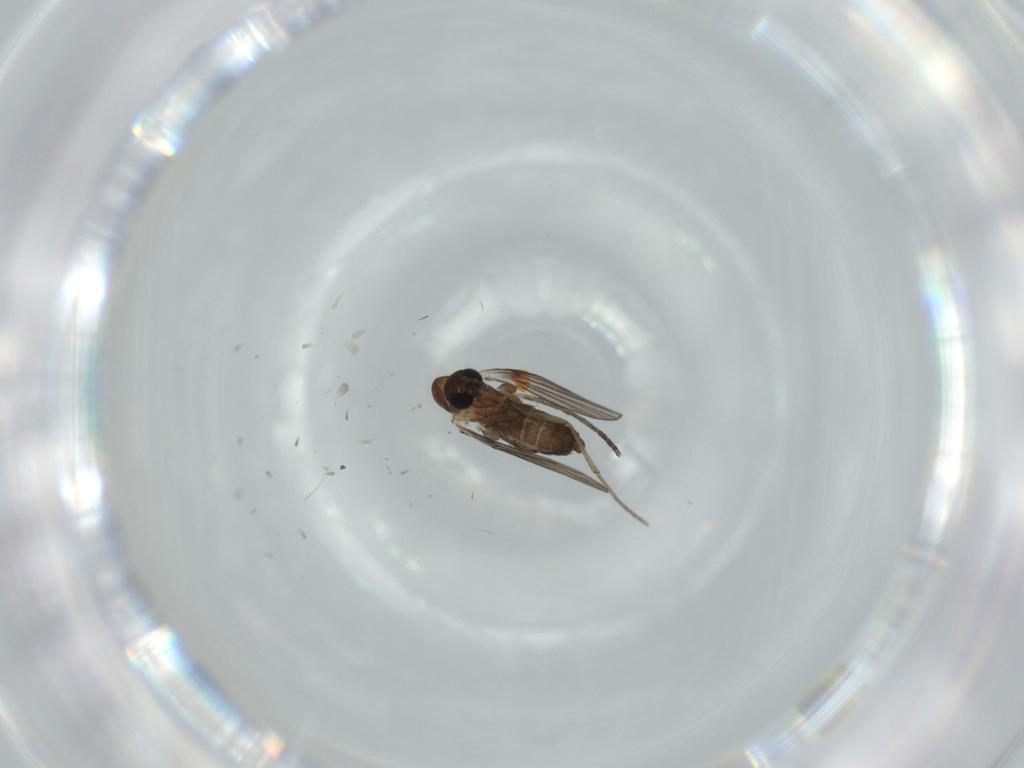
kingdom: Animalia
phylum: Arthropoda
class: Insecta
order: Diptera
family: Psychodidae
